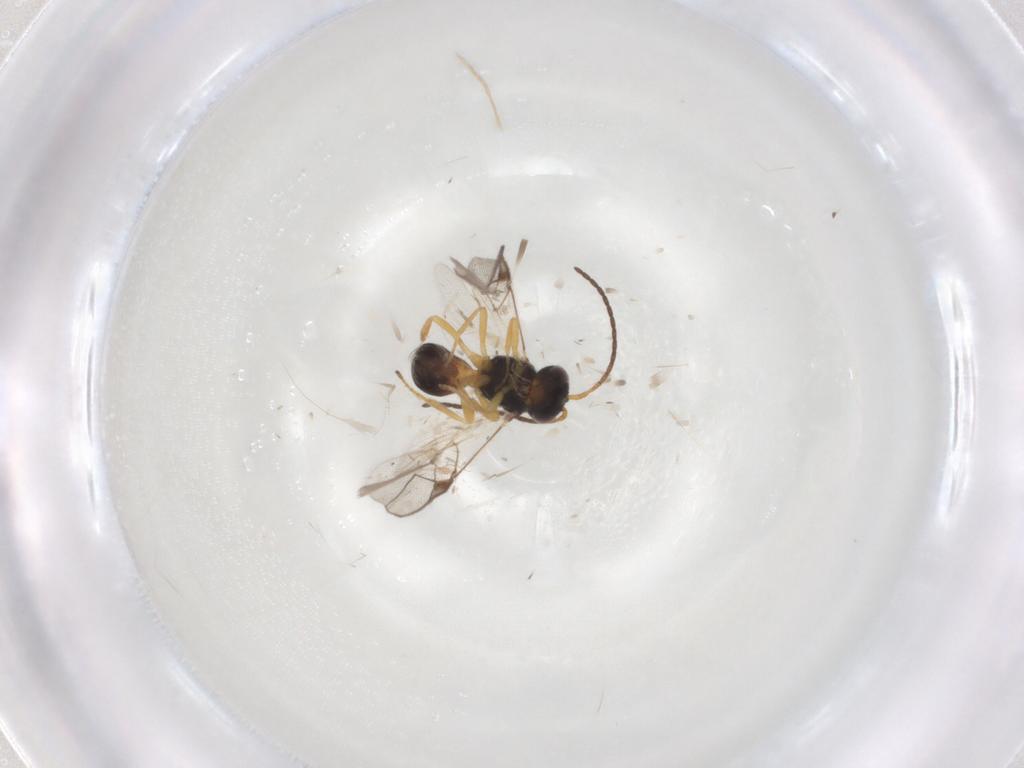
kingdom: Animalia
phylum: Arthropoda
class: Insecta
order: Hymenoptera
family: Braconidae
